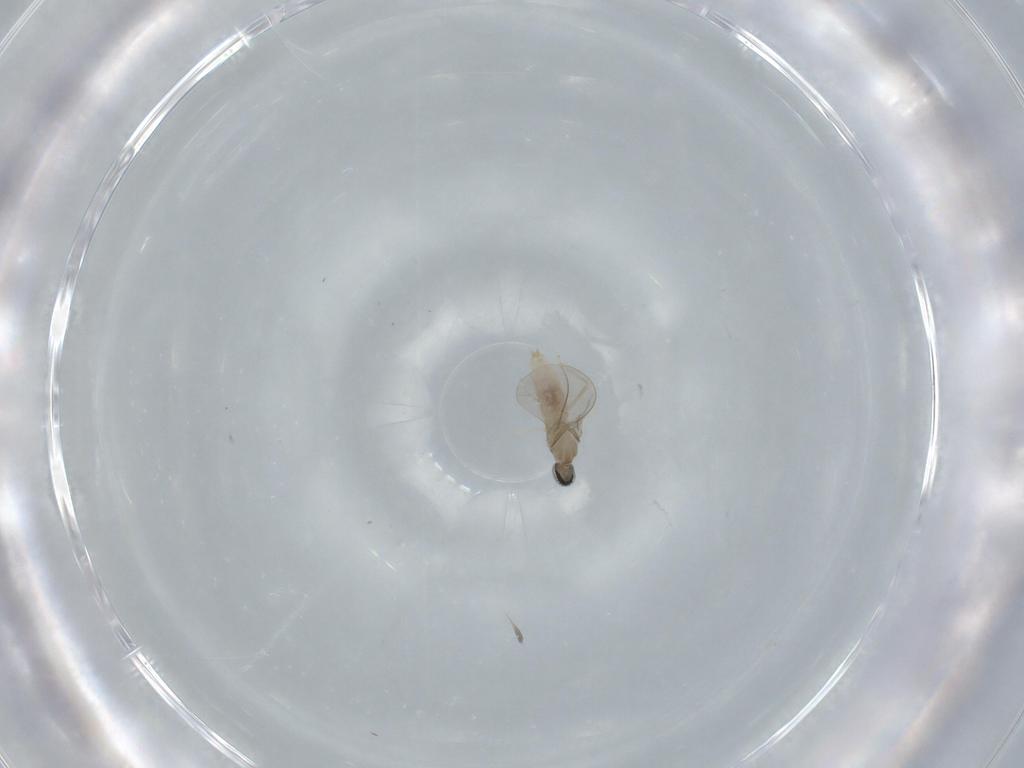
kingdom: Animalia
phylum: Arthropoda
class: Insecta
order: Diptera
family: Cecidomyiidae
